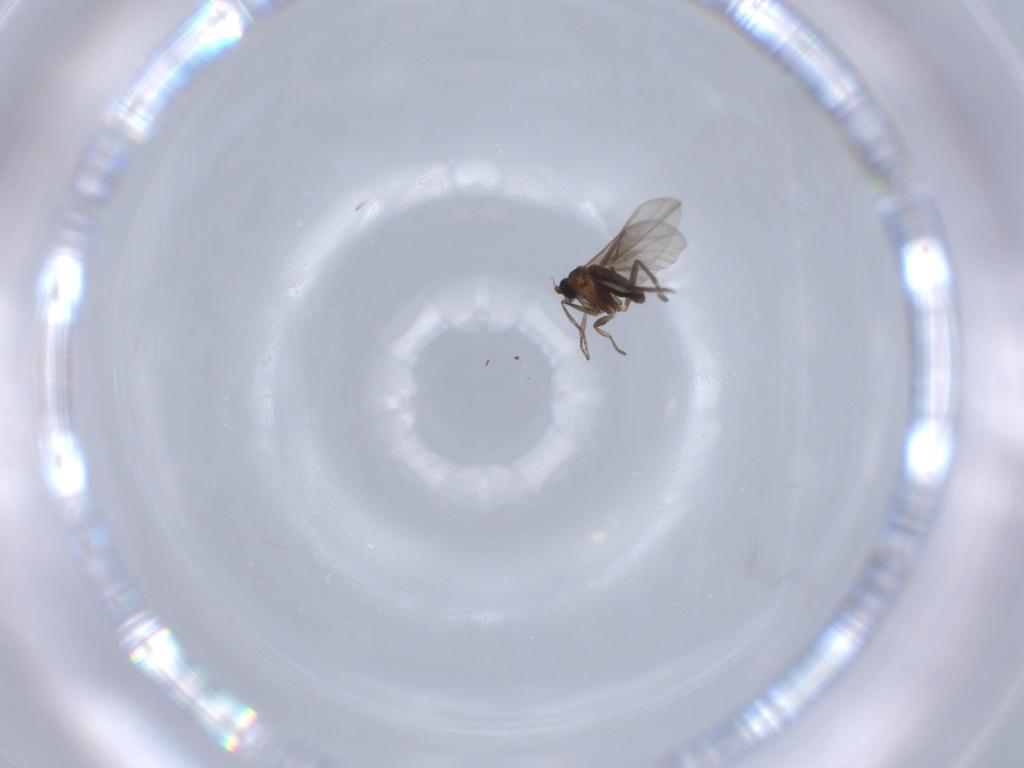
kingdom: Animalia
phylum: Arthropoda
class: Insecta
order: Diptera
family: Phoridae
